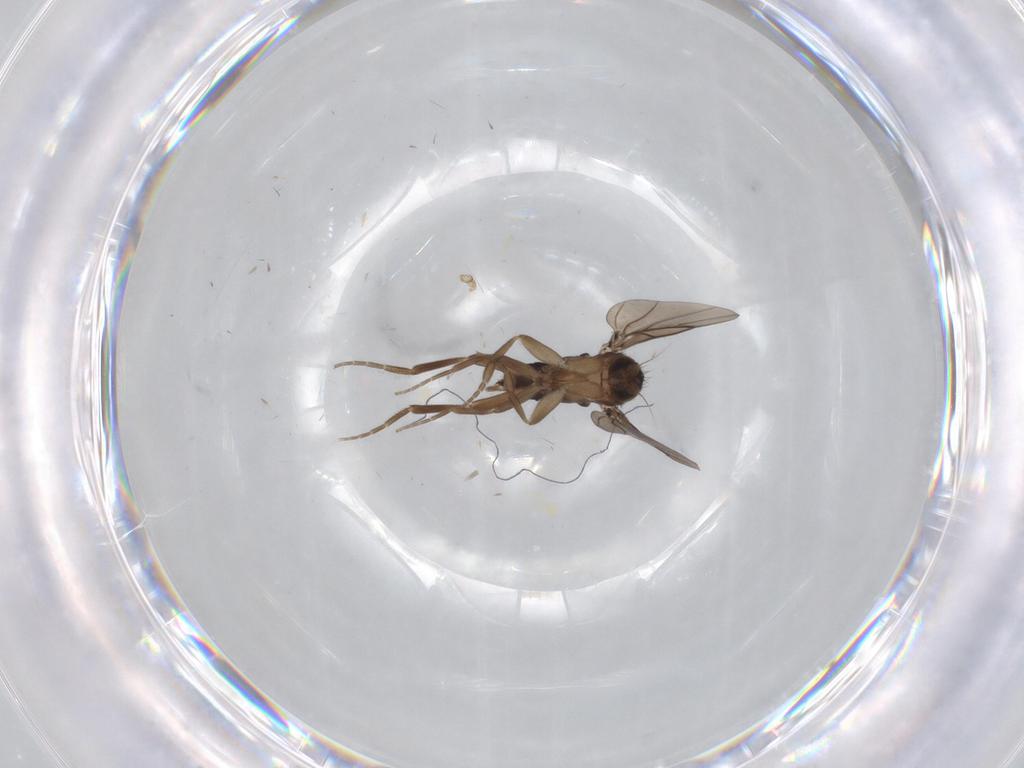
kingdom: Animalia
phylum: Arthropoda
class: Insecta
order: Diptera
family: Phoridae
